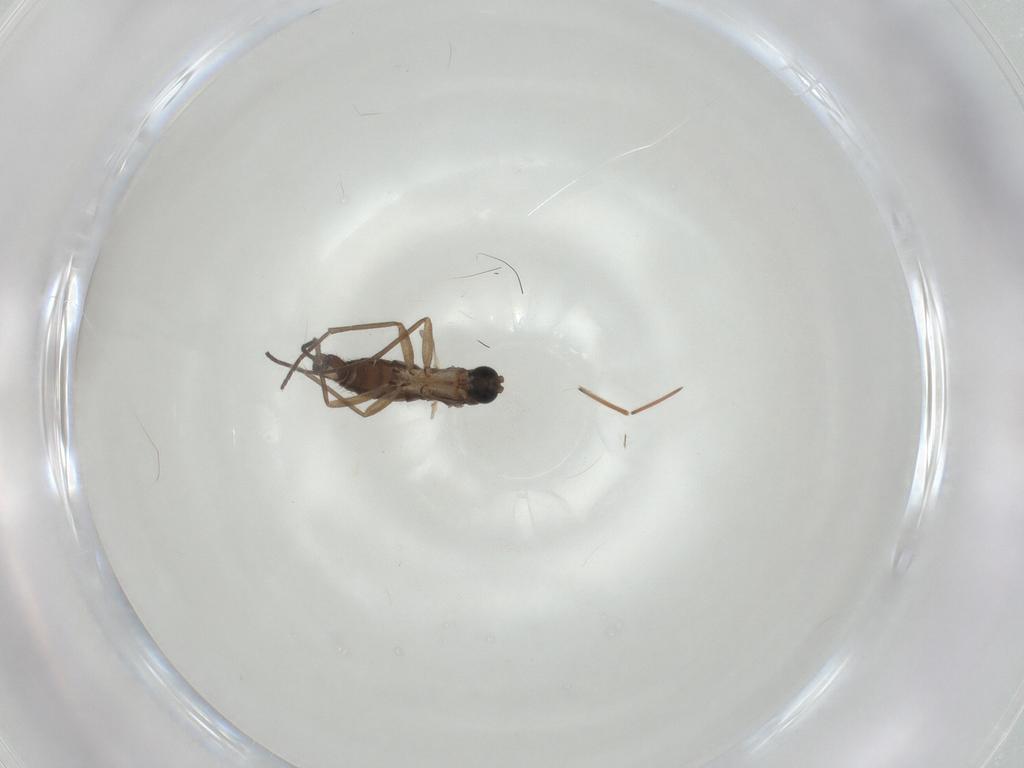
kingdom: Animalia
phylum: Arthropoda
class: Insecta
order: Diptera
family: Sciaridae
